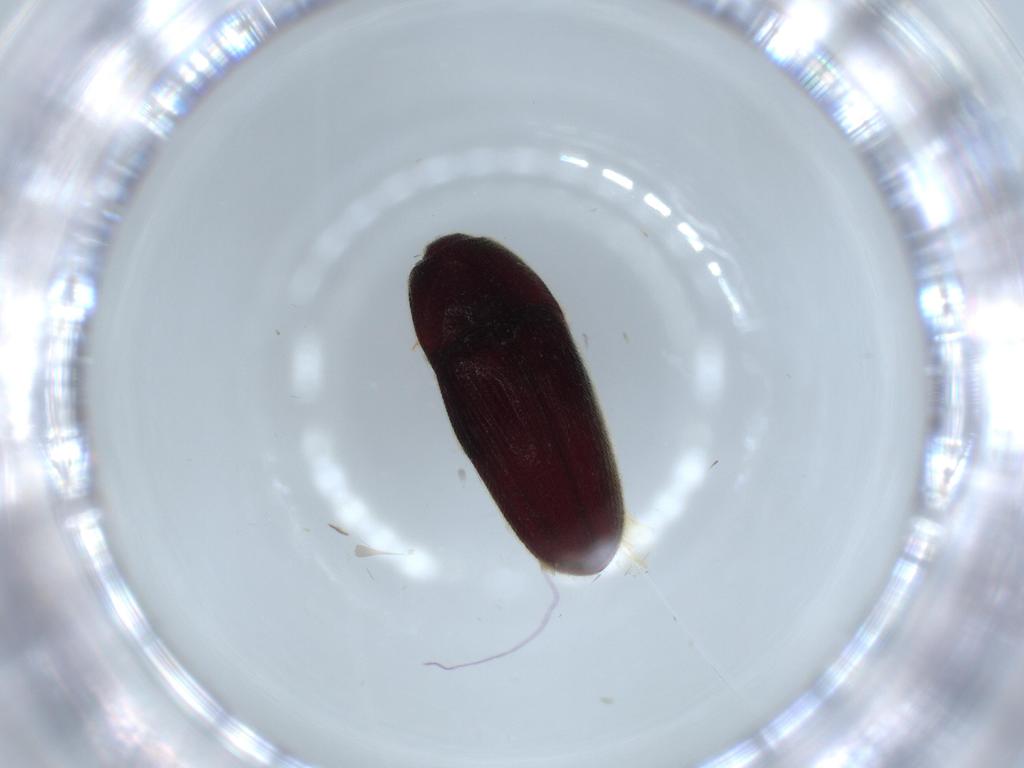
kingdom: Animalia
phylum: Arthropoda
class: Insecta
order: Coleoptera
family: Throscidae
